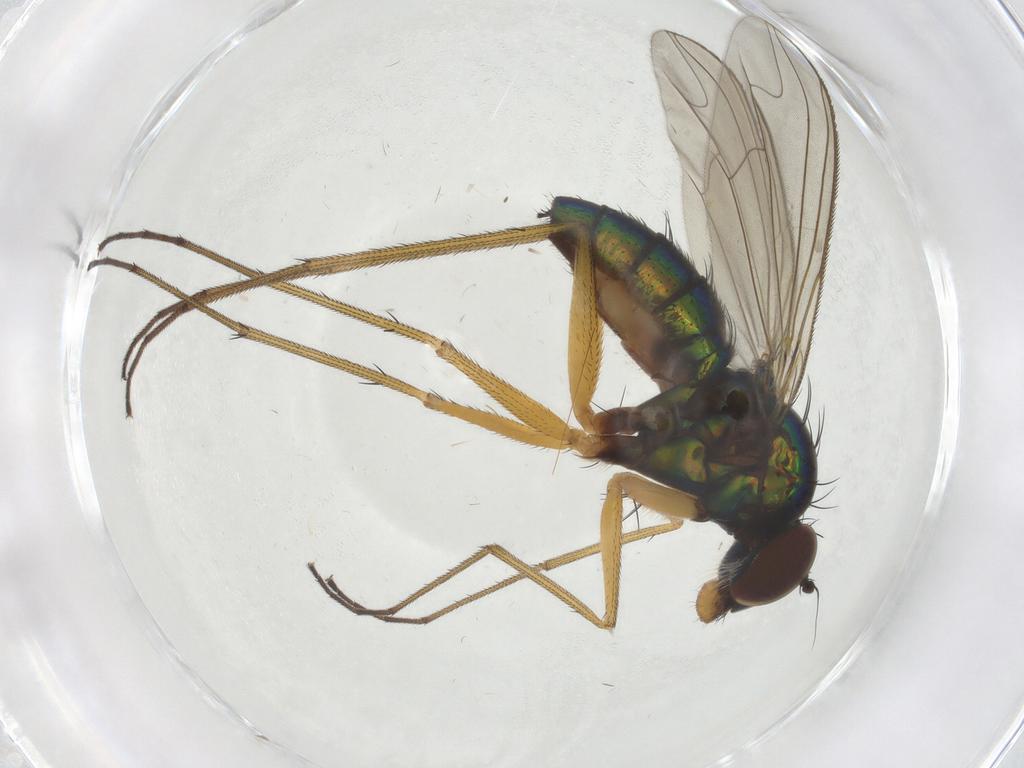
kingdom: Animalia
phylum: Arthropoda
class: Insecta
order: Diptera
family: Dolichopodidae
